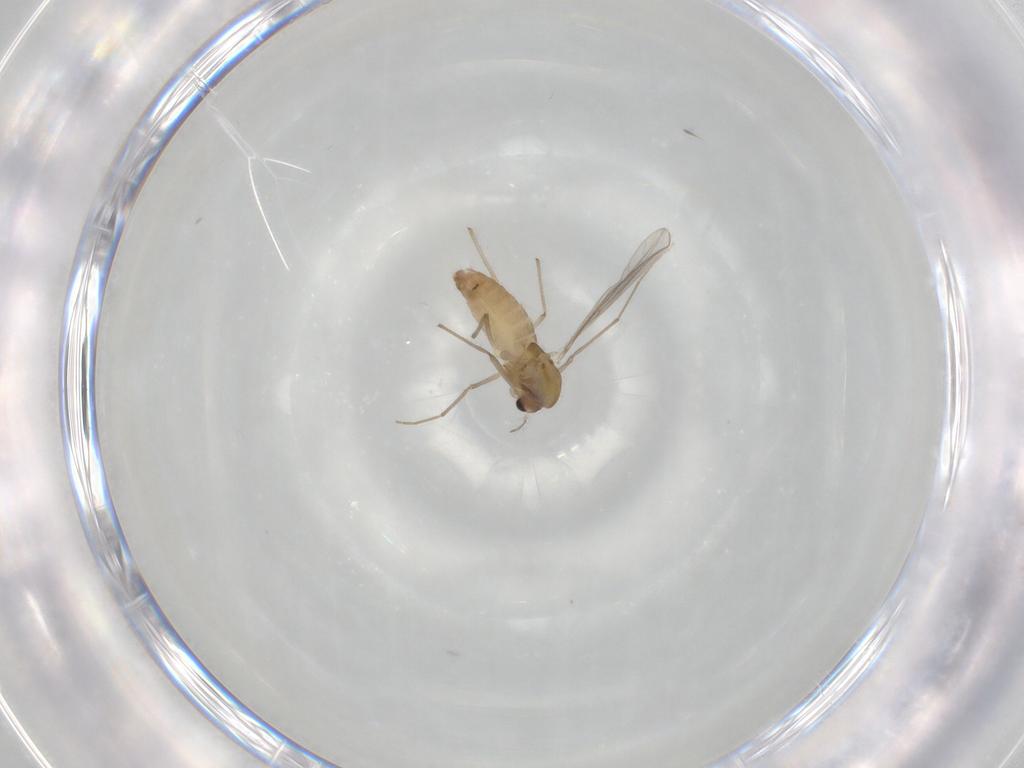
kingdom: Animalia
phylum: Arthropoda
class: Insecta
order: Diptera
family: Chironomidae
